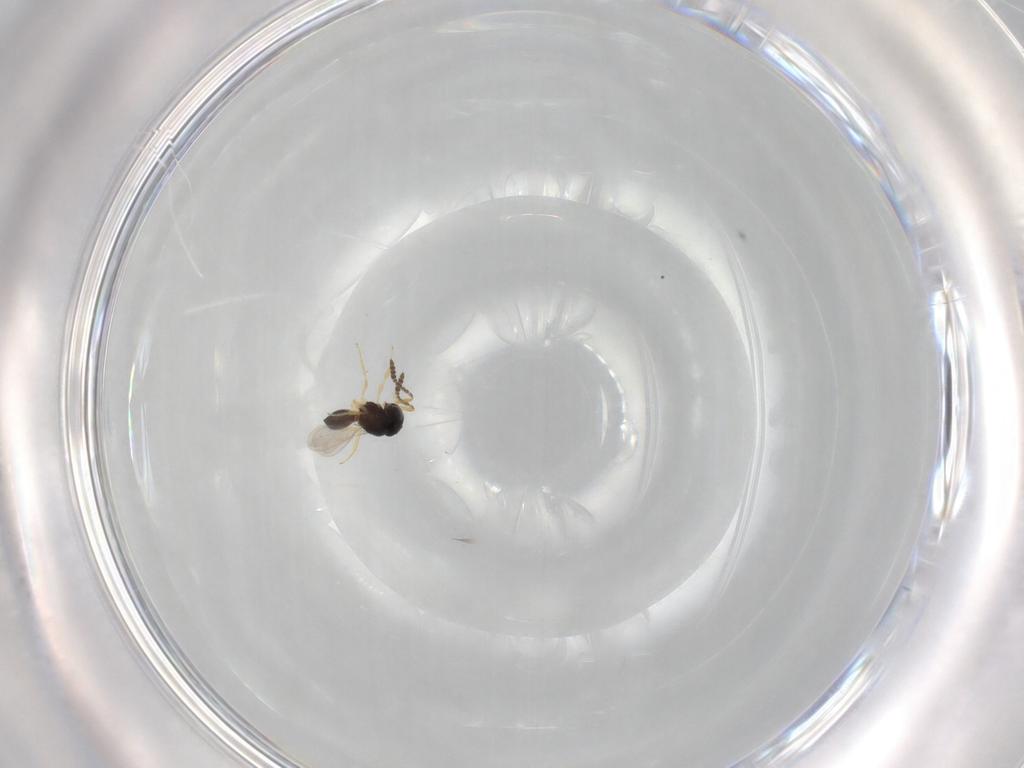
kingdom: Animalia
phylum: Arthropoda
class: Insecta
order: Hymenoptera
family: Scelionidae
